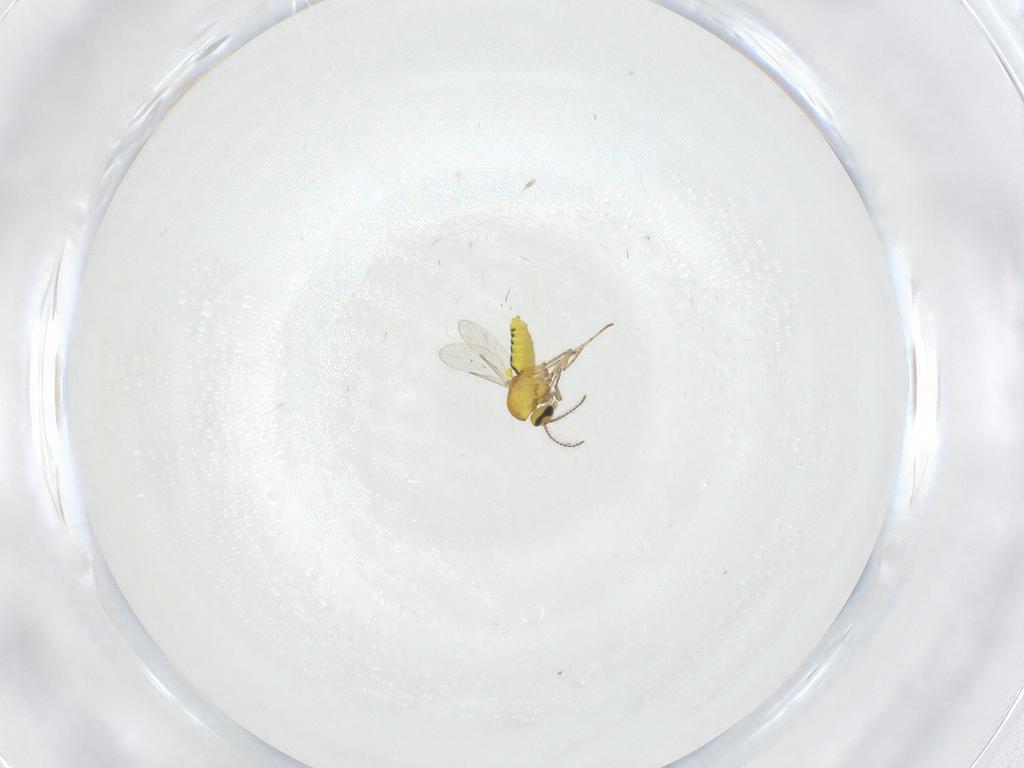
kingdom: Animalia
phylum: Arthropoda
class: Insecta
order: Diptera
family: Ceratopogonidae
